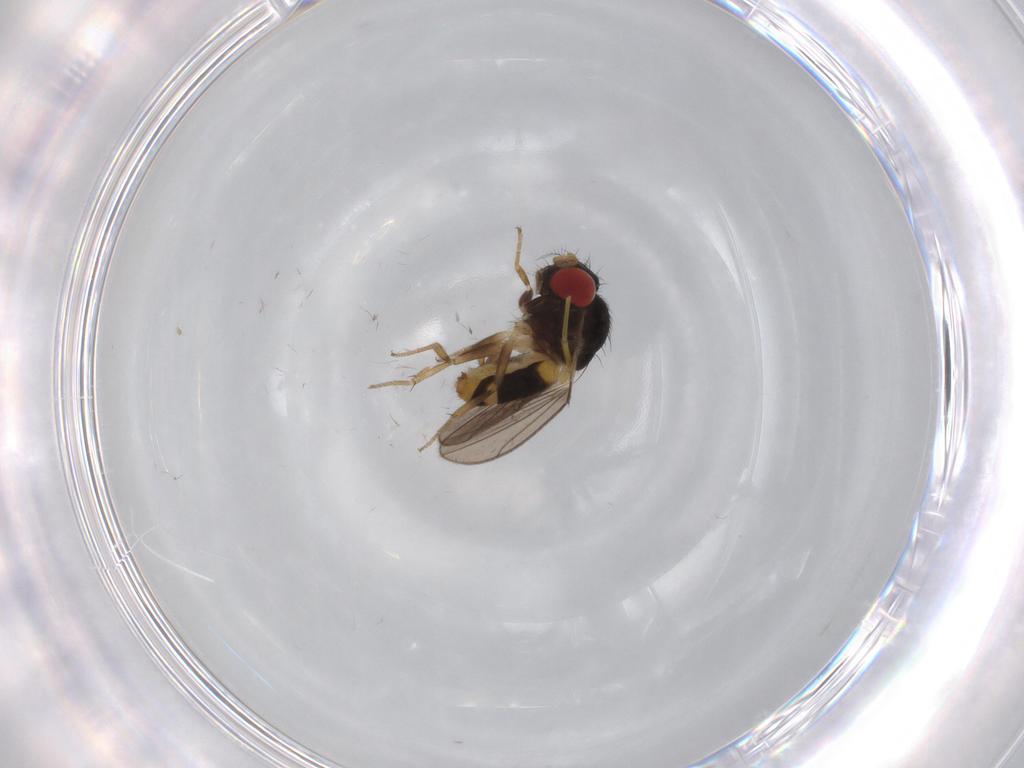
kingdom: Animalia
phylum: Arthropoda
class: Insecta
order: Diptera
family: Drosophilidae
